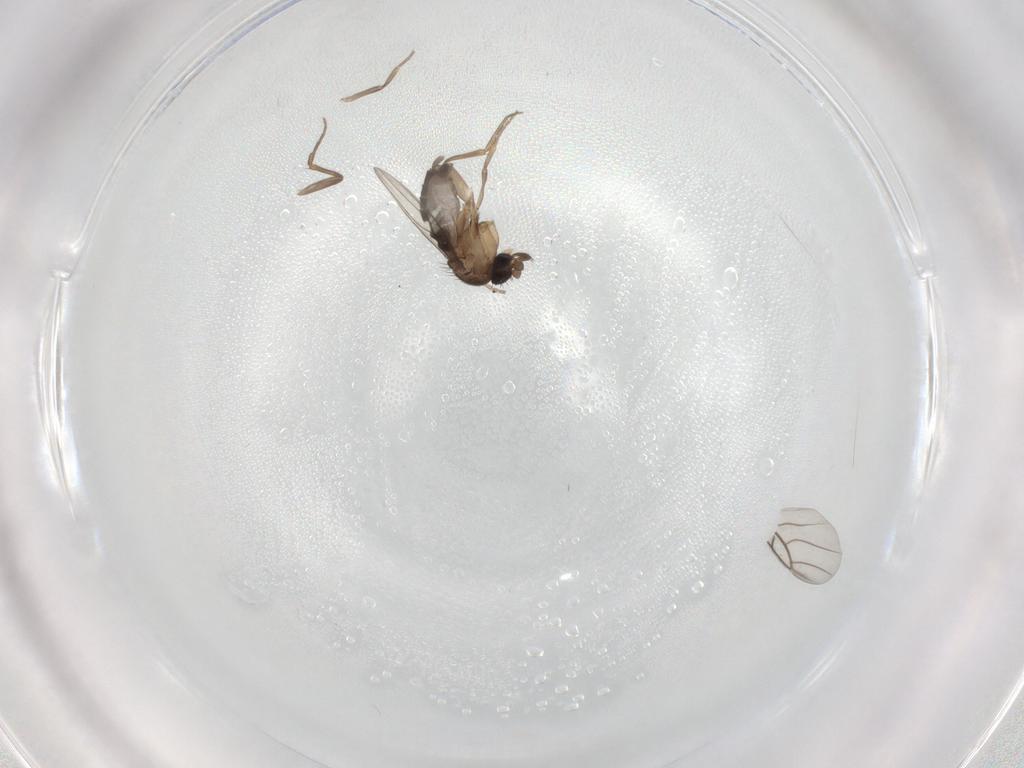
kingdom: Animalia
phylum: Arthropoda
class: Insecta
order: Diptera
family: Phoridae
